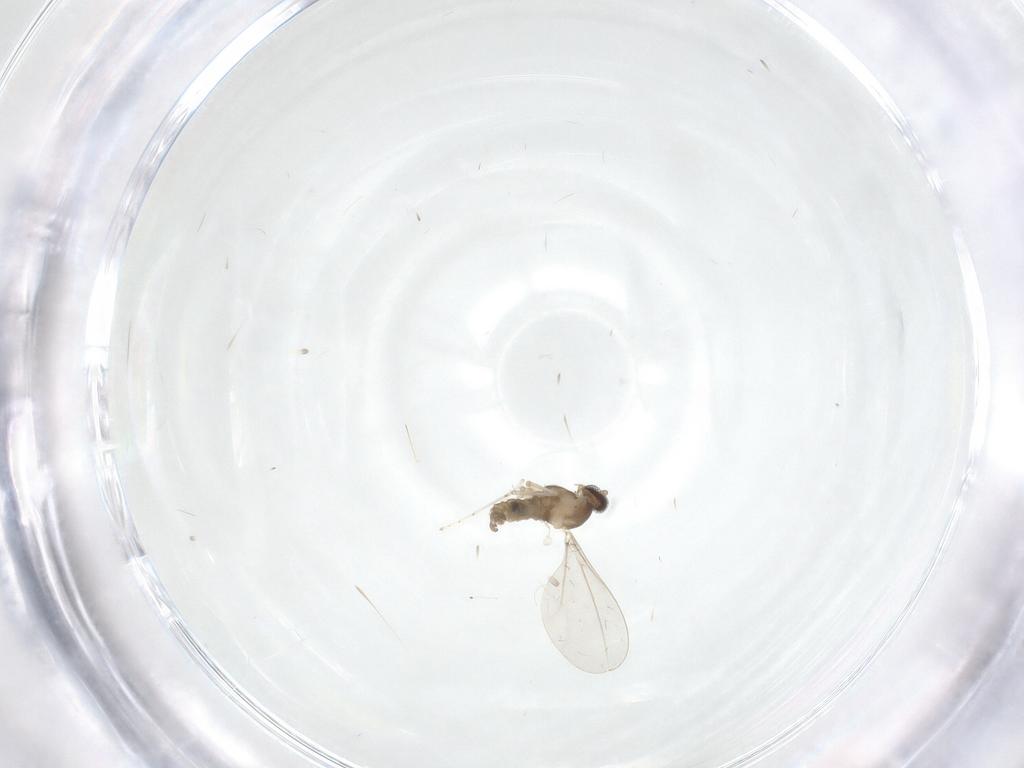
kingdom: Animalia
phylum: Arthropoda
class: Insecta
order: Diptera
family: Cecidomyiidae
